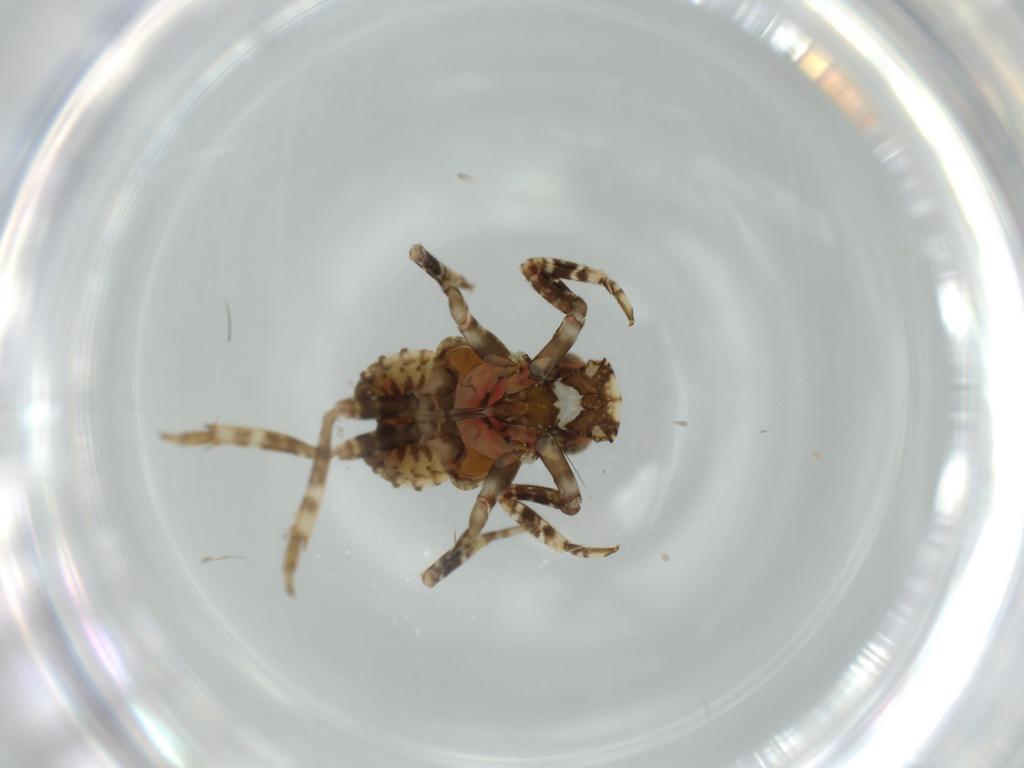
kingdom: Animalia
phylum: Arthropoda
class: Insecta
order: Hemiptera
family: Fulgoridae
